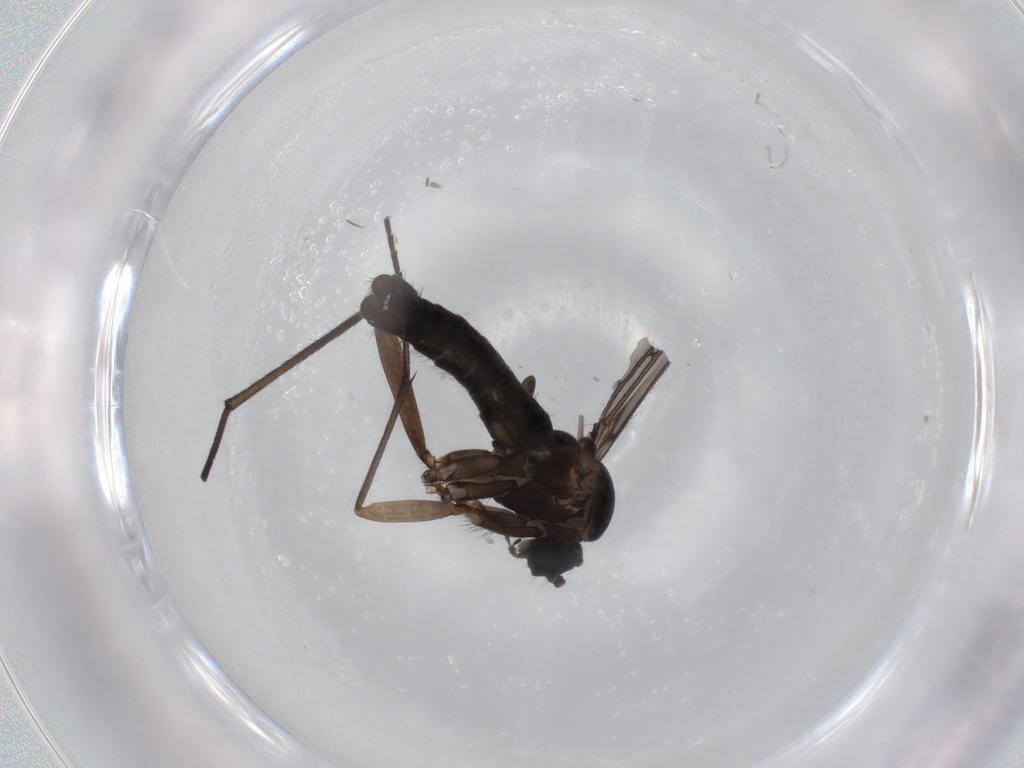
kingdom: Animalia
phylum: Arthropoda
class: Insecta
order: Diptera
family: Sciaridae
